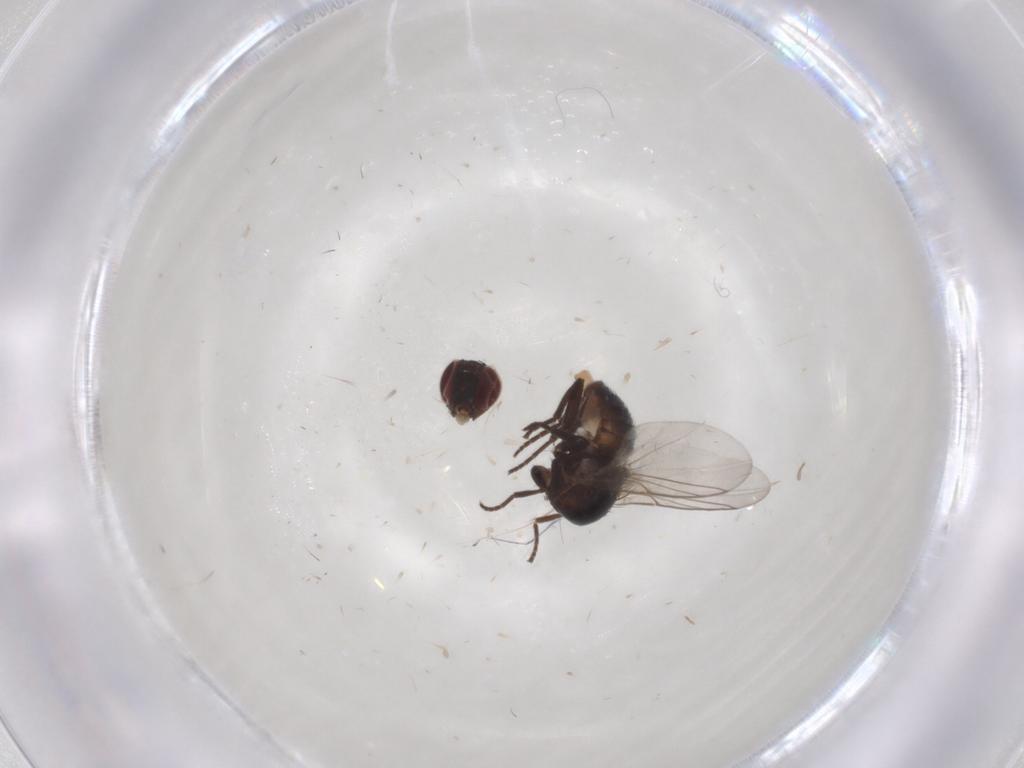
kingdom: Animalia
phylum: Arthropoda
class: Insecta
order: Diptera
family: Chironomidae
